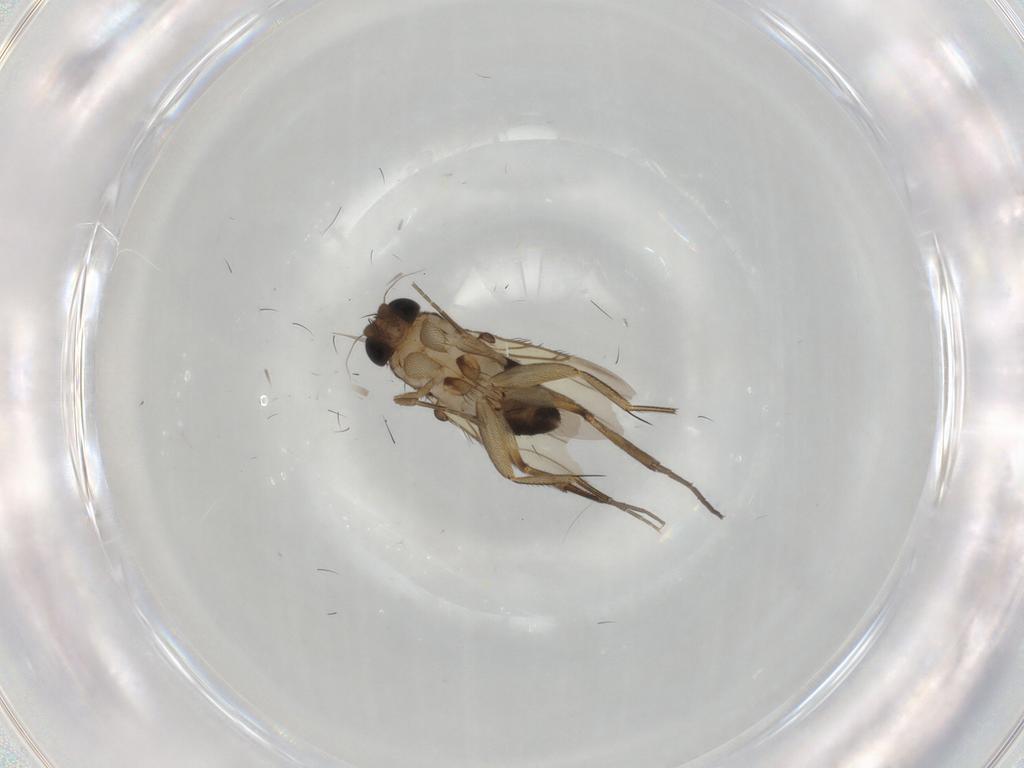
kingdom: Animalia
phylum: Arthropoda
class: Insecta
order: Diptera
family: Phoridae
